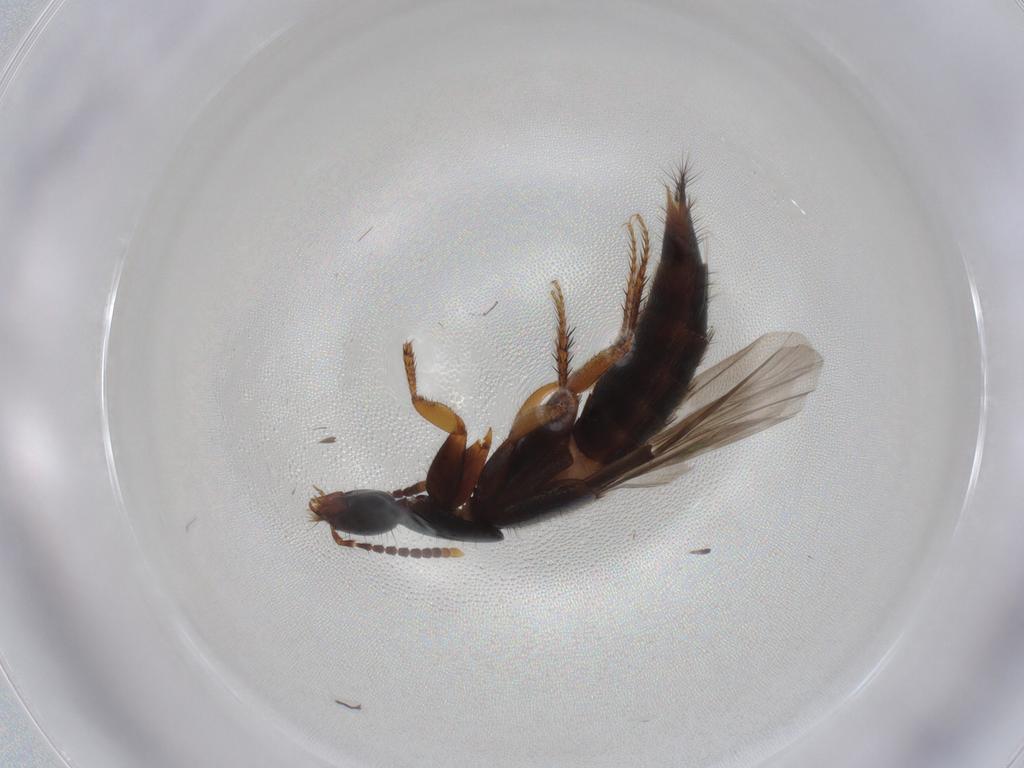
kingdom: Animalia
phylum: Arthropoda
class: Insecta
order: Coleoptera
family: Staphylinidae
